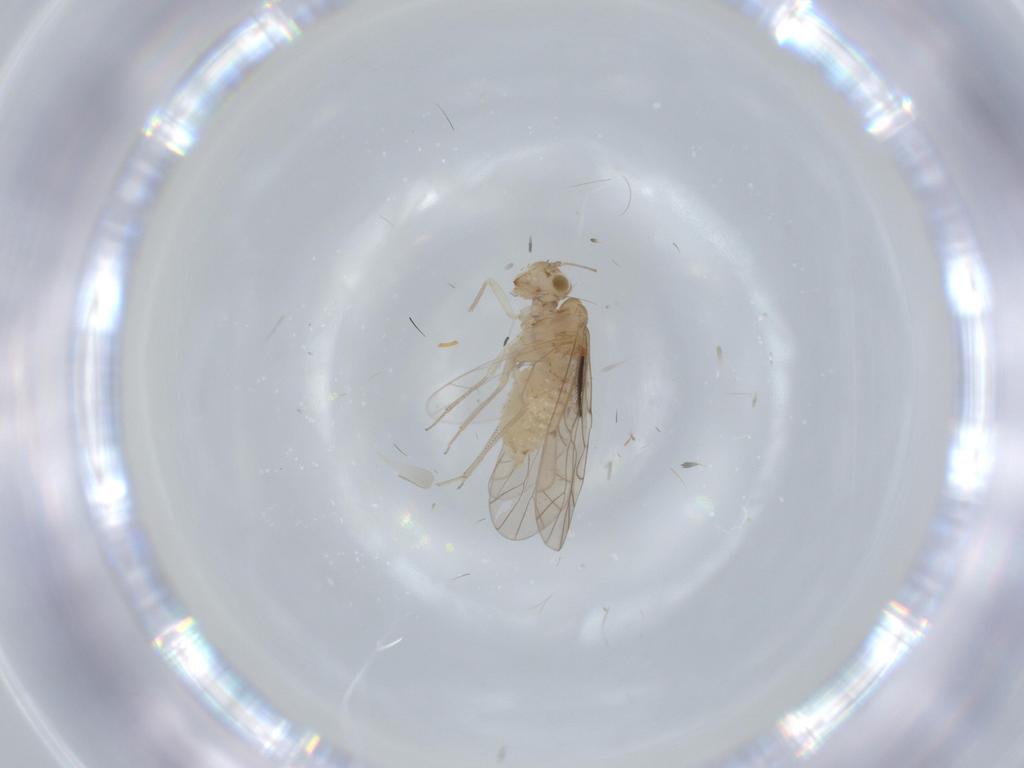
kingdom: Animalia
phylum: Arthropoda
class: Insecta
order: Psocodea
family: Lachesillidae
